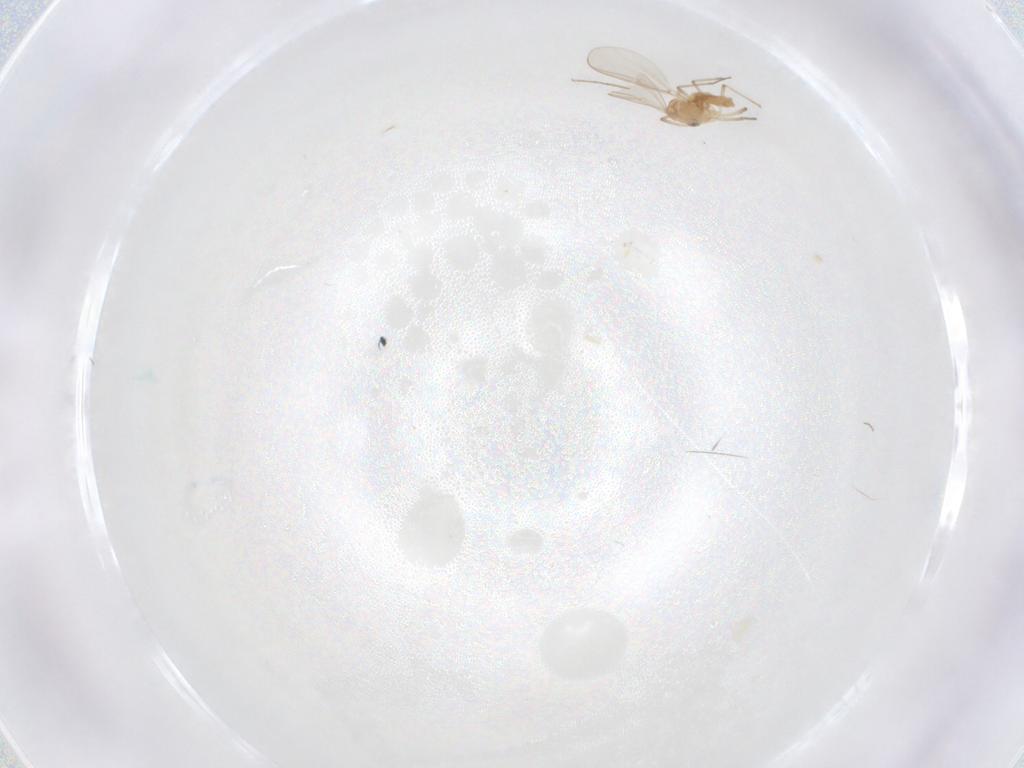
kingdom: Animalia
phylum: Arthropoda
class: Insecta
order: Diptera
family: Chironomidae
